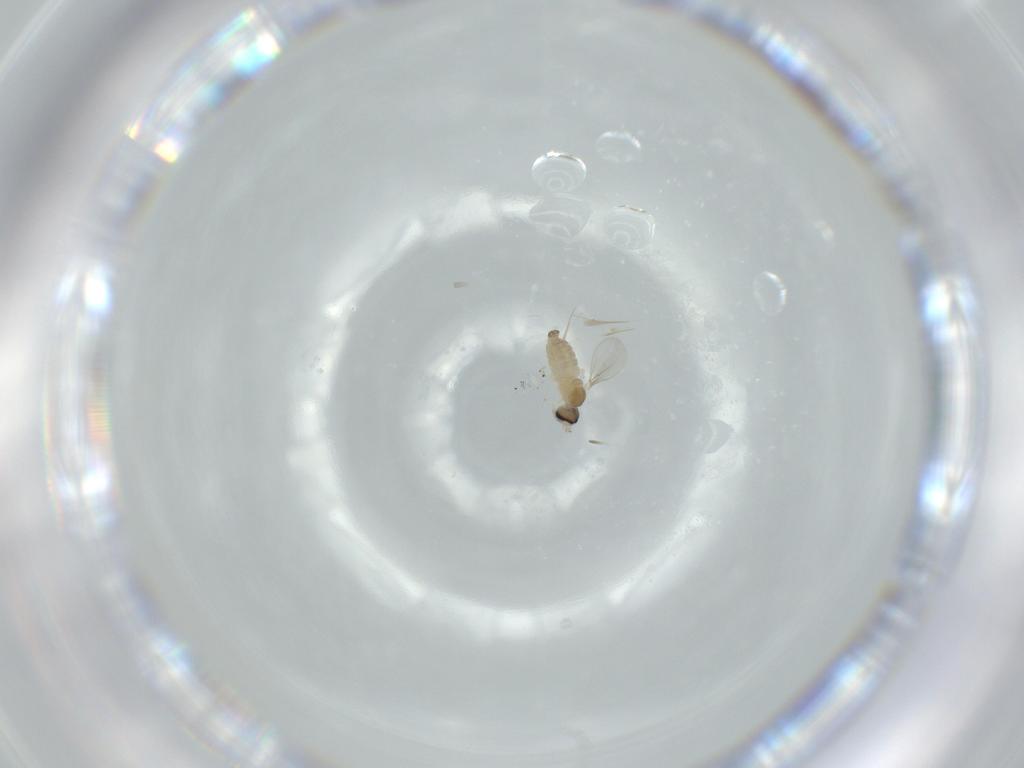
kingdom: Animalia
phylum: Arthropoda
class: Insecta
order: Diptera
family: Cecidomyiidae
